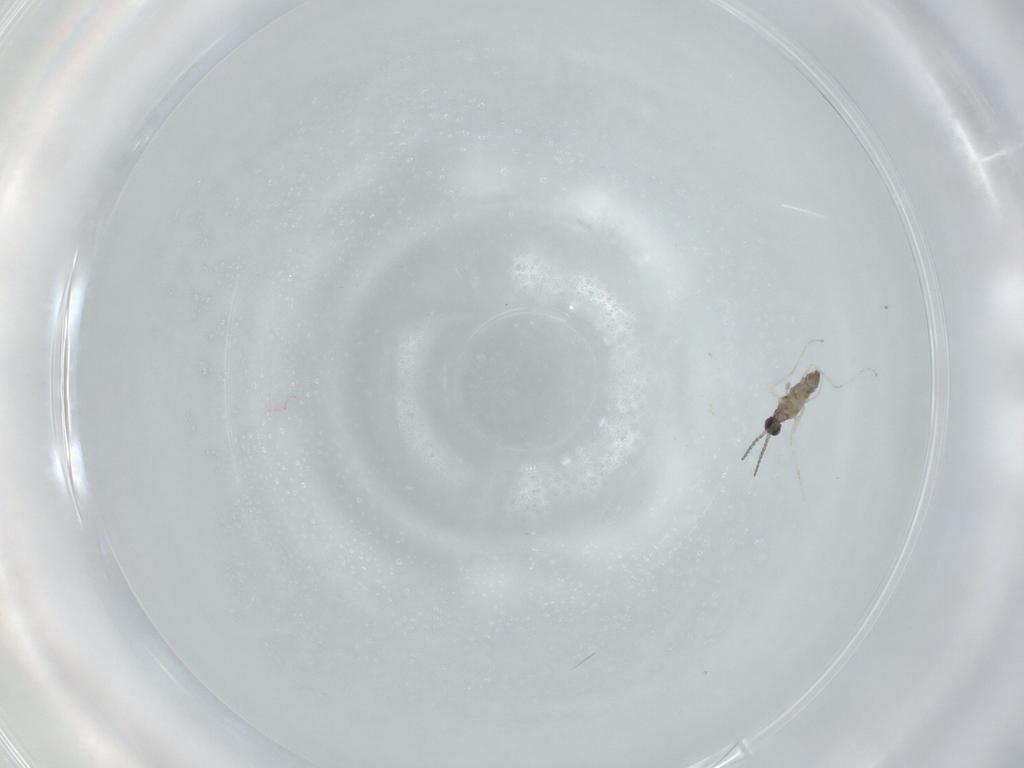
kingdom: Animalia
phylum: Arthropoda
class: Insecta
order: Diptera
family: Cecidomyiidae
